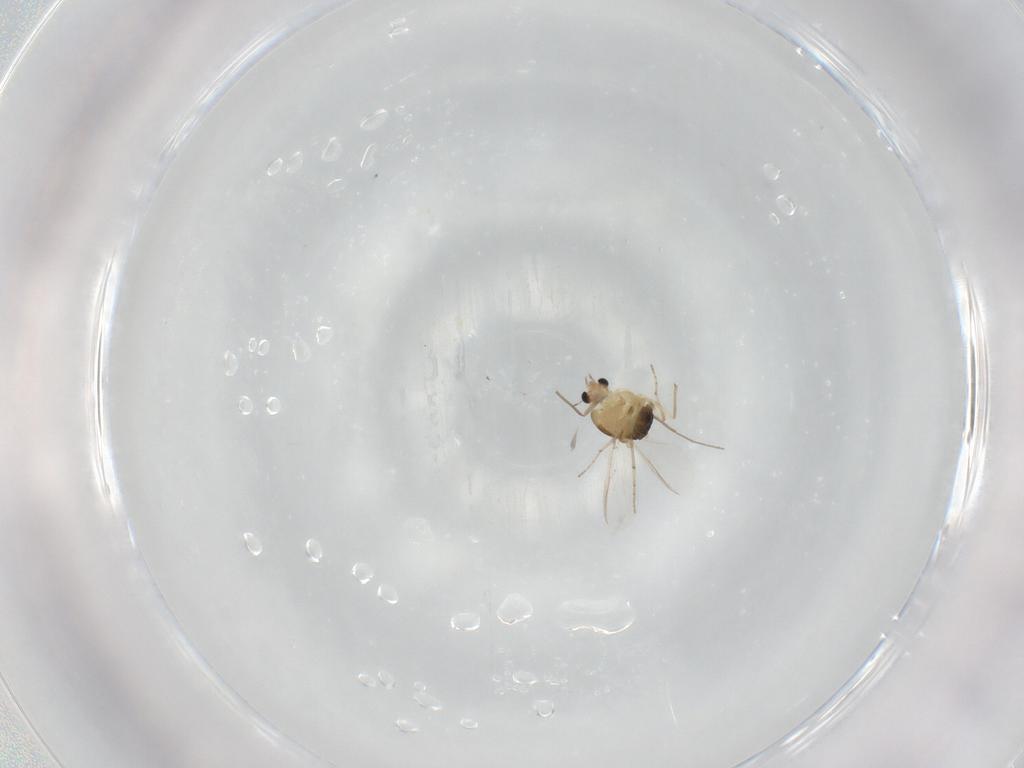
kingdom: Animalia
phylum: Arthropoda
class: Insecta
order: Diptera
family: Chironomidae
